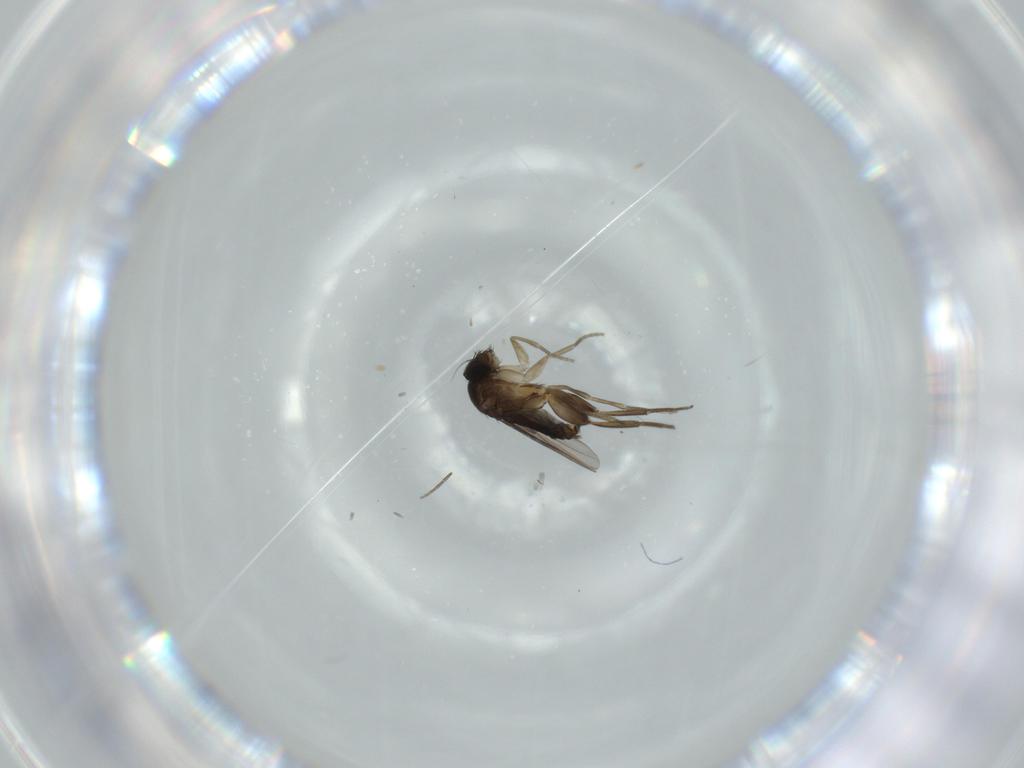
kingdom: Animalia
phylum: Arthropoda
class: Insecta
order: Diptera
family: Phoridae
